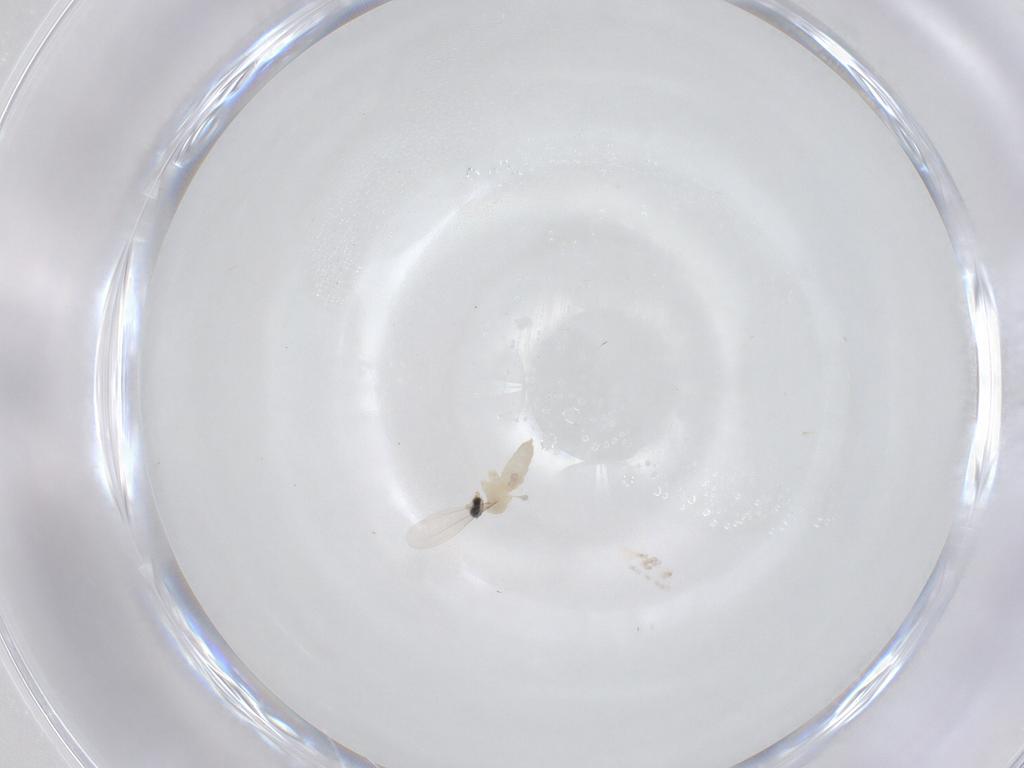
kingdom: Animalia
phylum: Arthropoda
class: Insecta
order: Diptera
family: Cecidomyiidae
